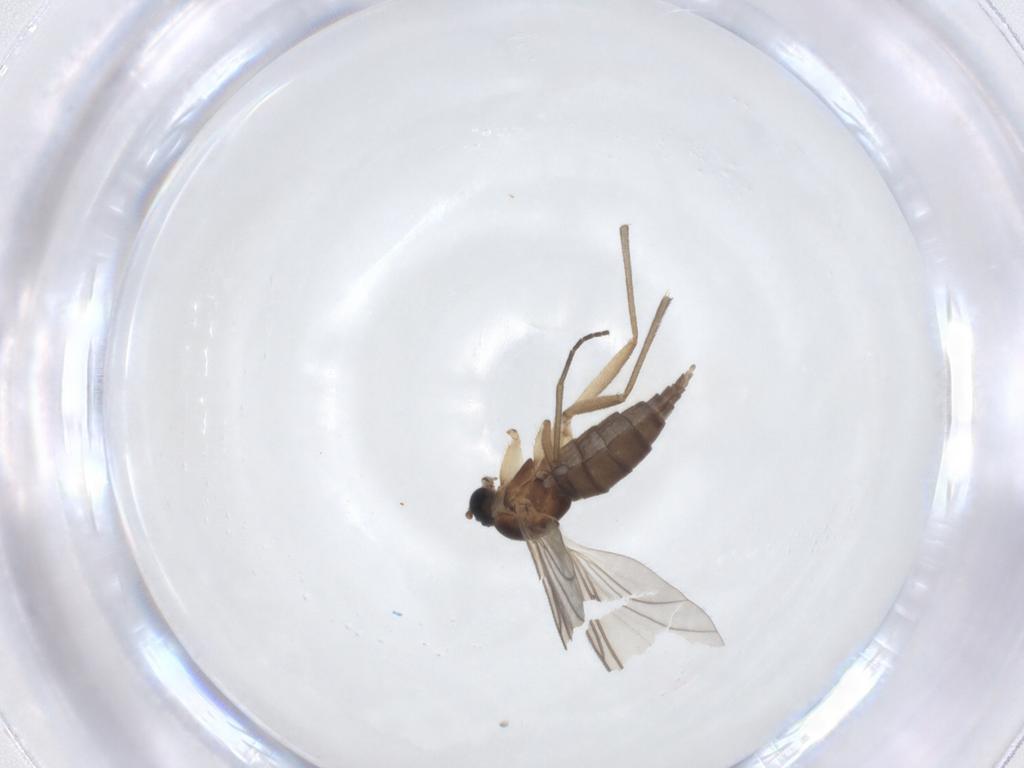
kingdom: Animalia
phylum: Arthropoda
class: Insecta
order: Diptera
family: Sciaridae
